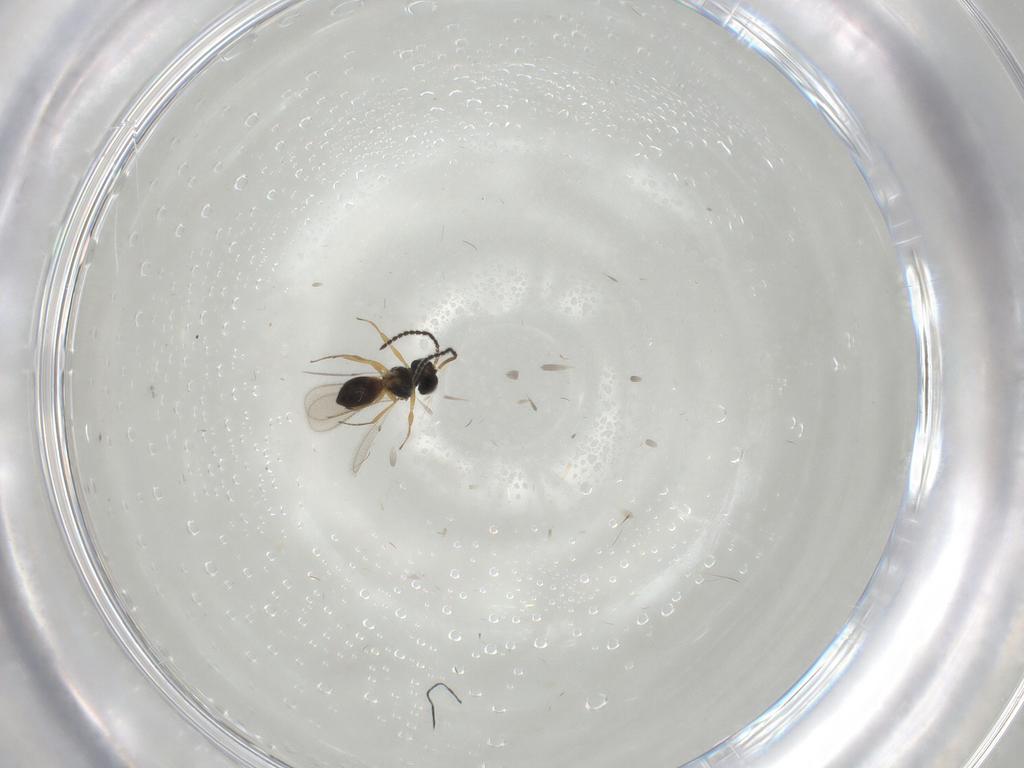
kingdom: Animalia
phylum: Arthropoda
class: Insecta
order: Hymenoptera
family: Scelionidae
